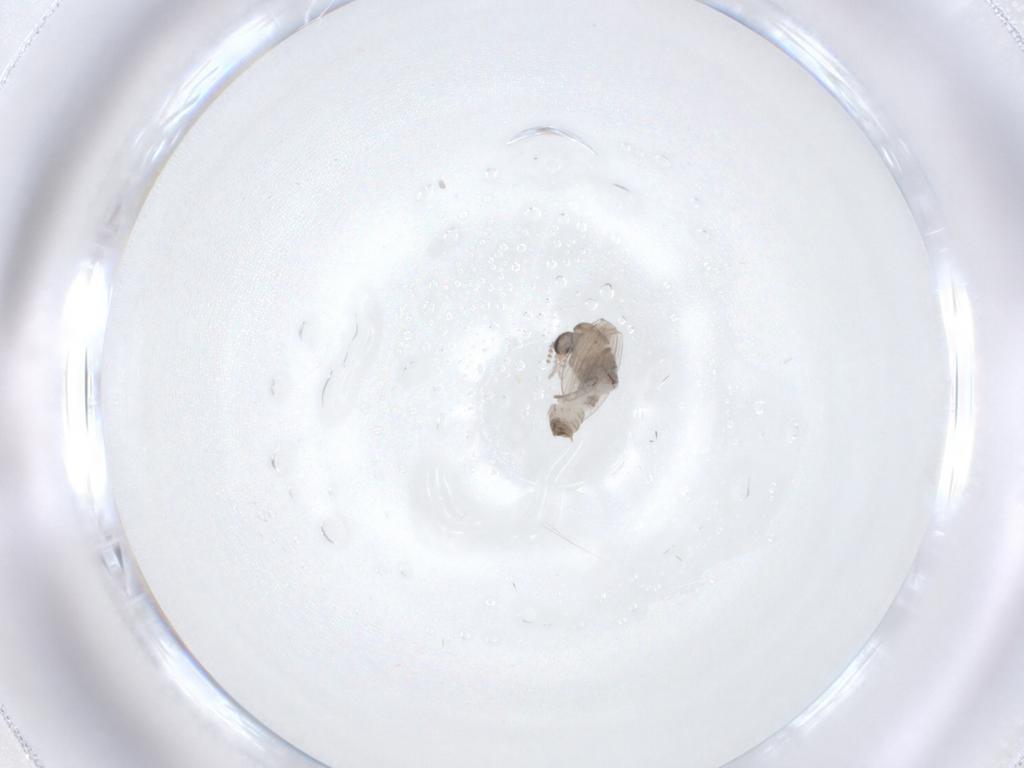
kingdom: Animalia
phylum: Arthropoda
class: Insecta
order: Diptera
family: Psychodidae
